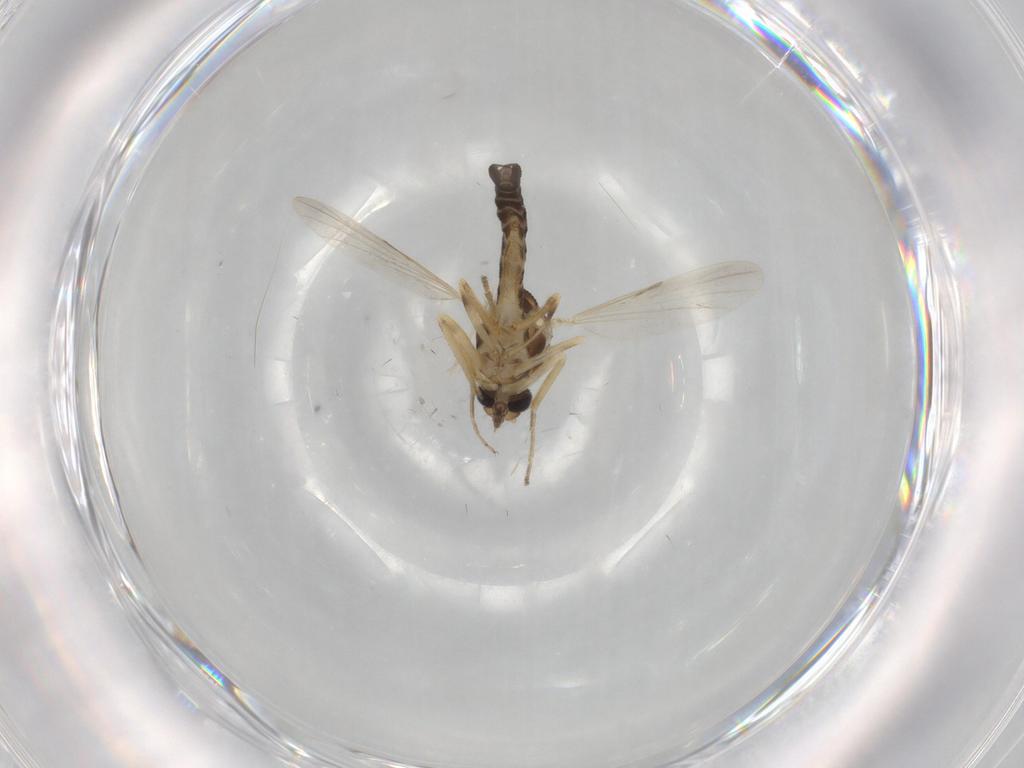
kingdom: Animalia
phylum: Arthropoda
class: Insecta
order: Diptera
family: Ceratopogonidae
